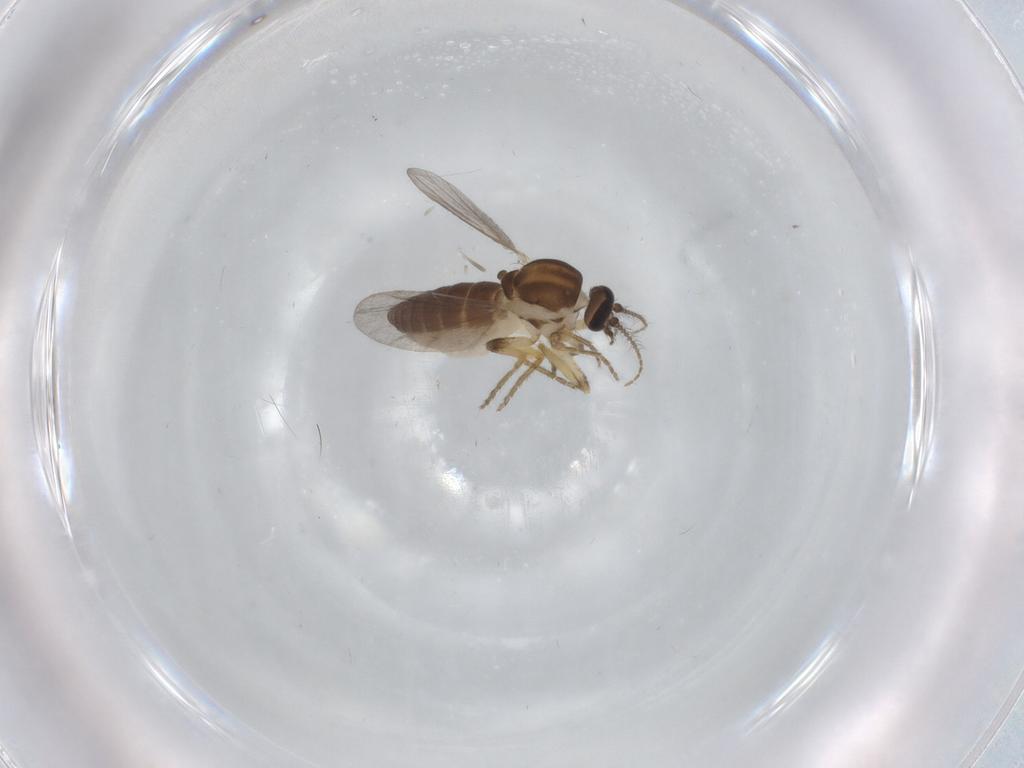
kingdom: Animalia
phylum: Arthropoda
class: Insecta
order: Diptera
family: Ceratopogonidae
